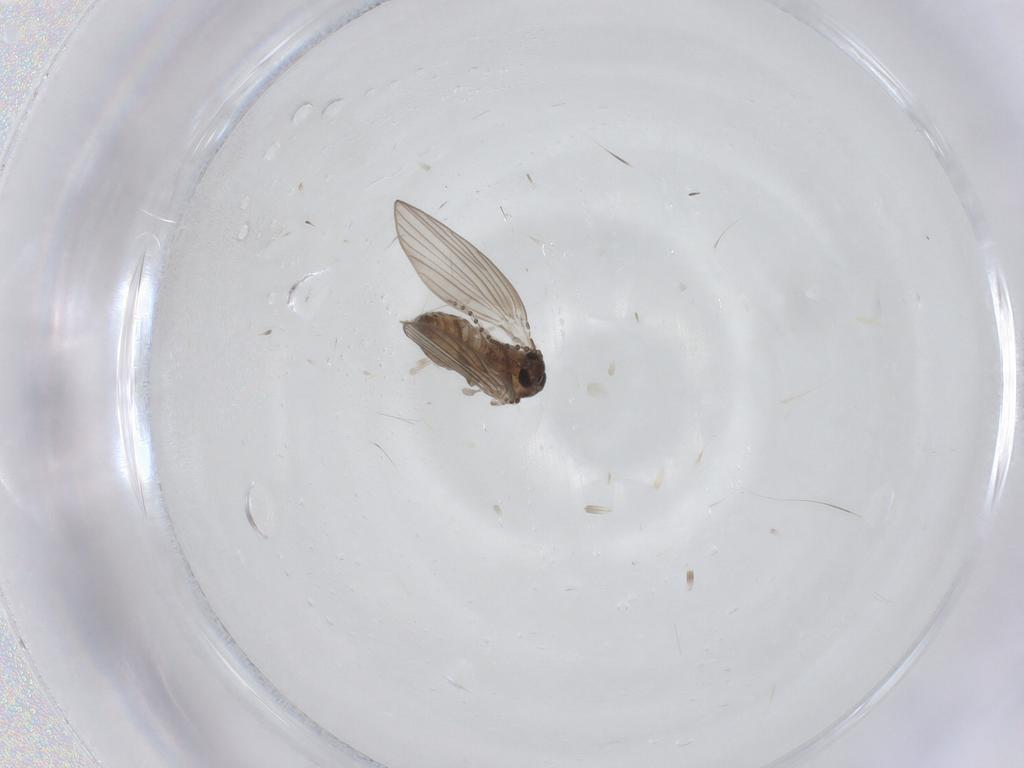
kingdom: Animalia
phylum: Arthropoda
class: Insecta
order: Diptera
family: Psychodidae
